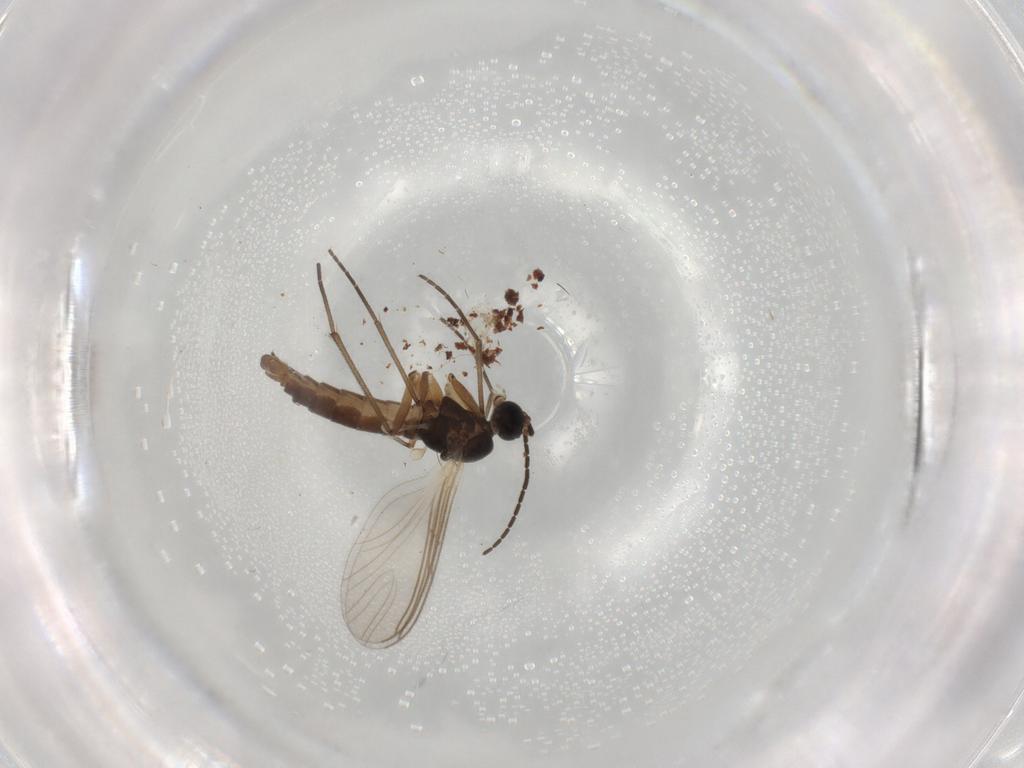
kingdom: Animalia
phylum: Arthropoda
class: Insecta
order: Diptera
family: Muscidae
